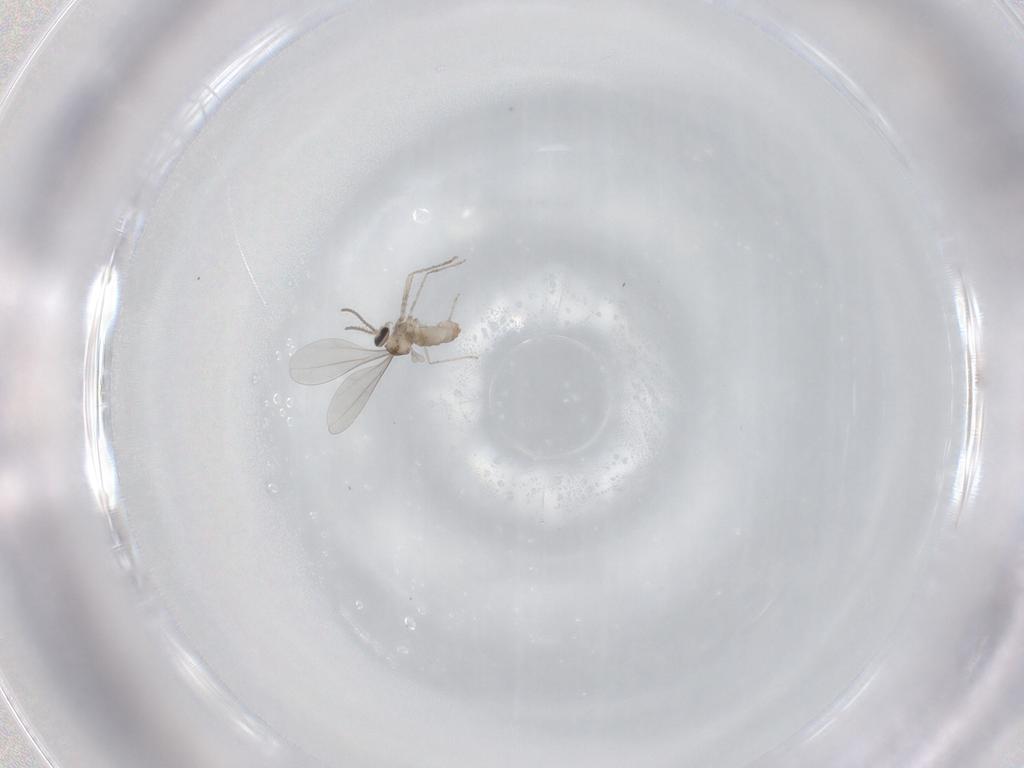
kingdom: Animalia
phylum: Arthropoda
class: Insecta
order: Diptera
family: Cecidomyiidae
